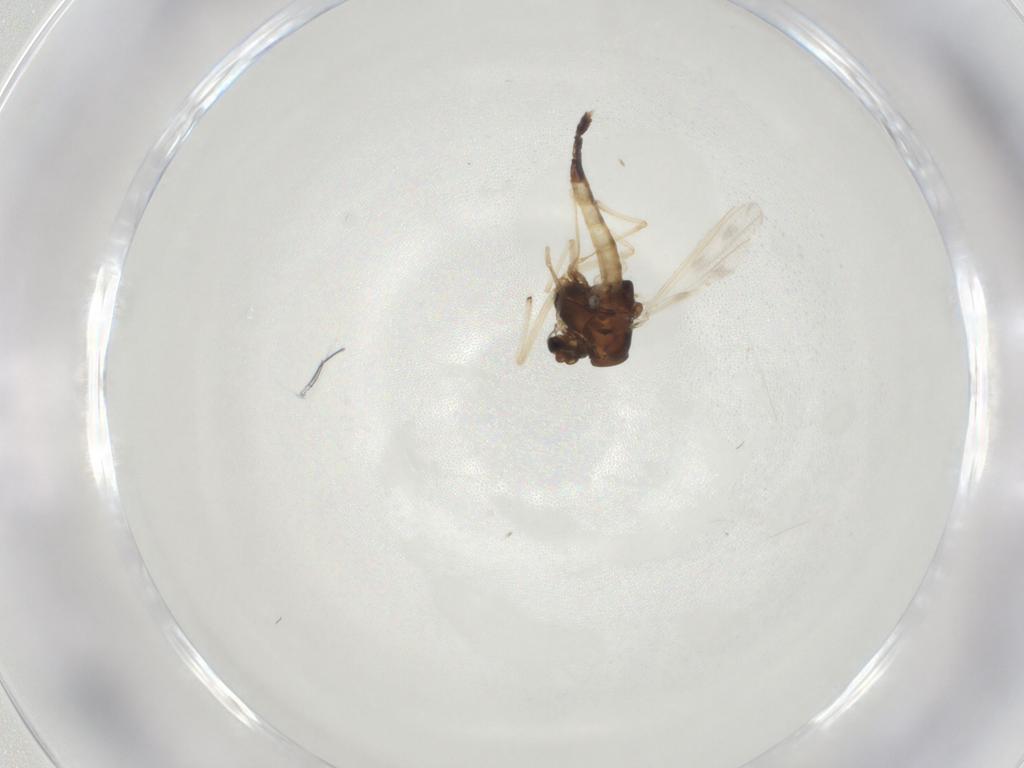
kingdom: Animalia
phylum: Arthropoda
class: Insecta
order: Diptera
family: Chironomidae
